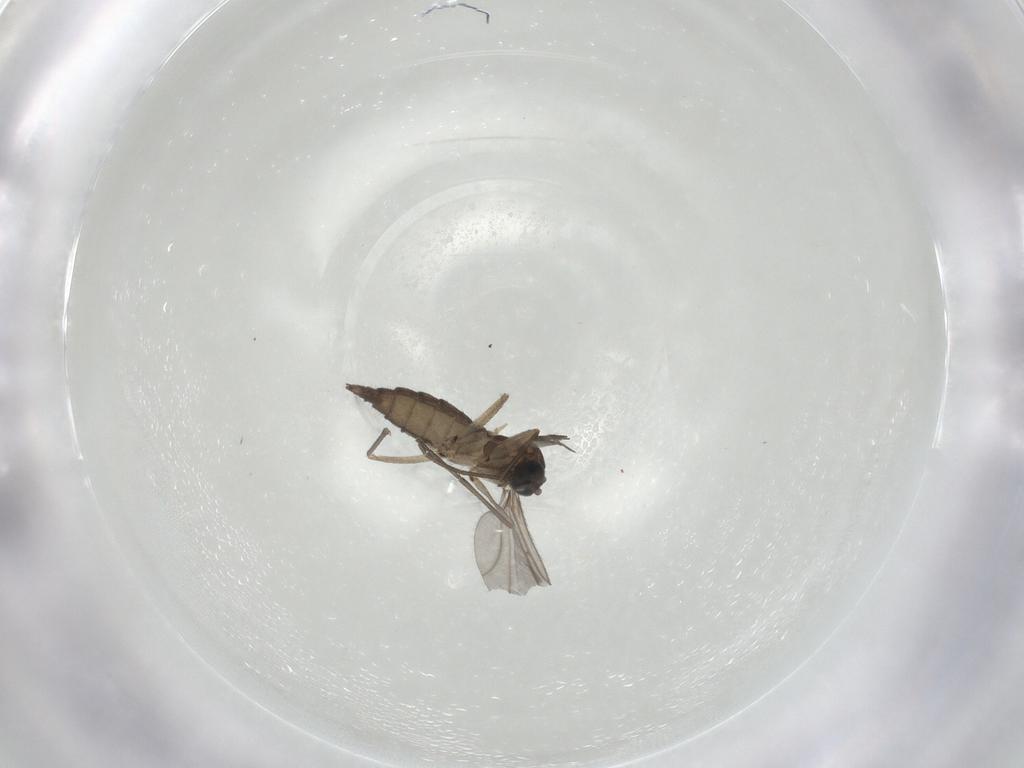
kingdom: Animalia
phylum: Arthropoda
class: Insecta
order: Diptera
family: Sciaridae
